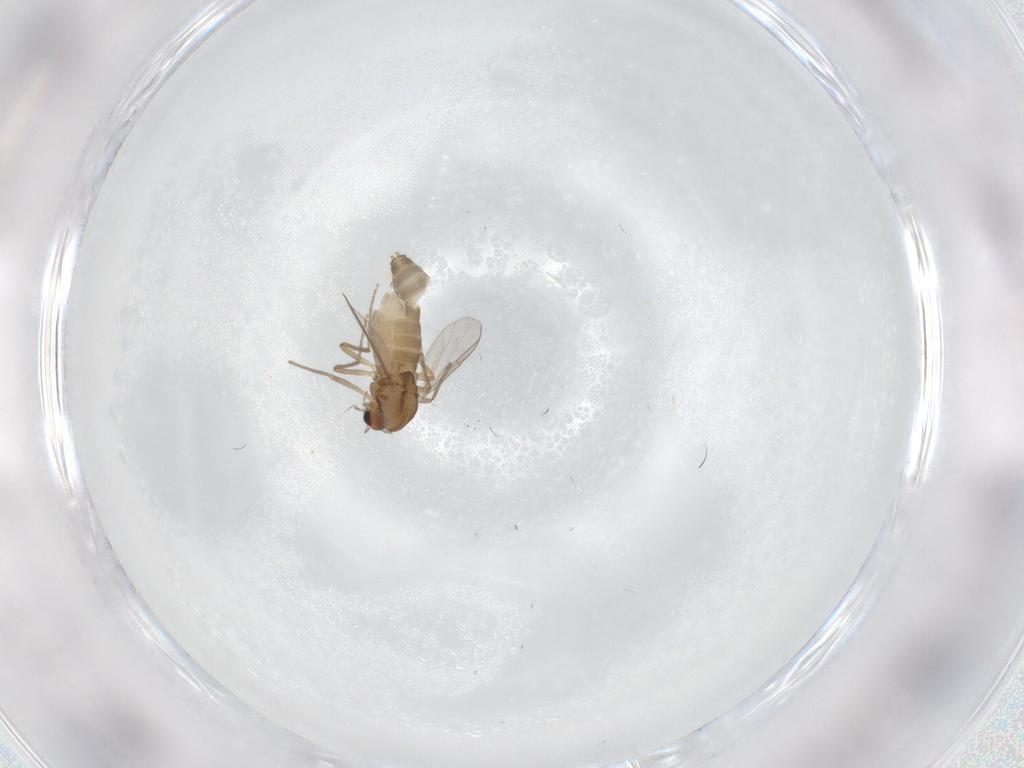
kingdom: Animalia
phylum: Arthropoda
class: Insecta
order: Diptera
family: Chironomidae
